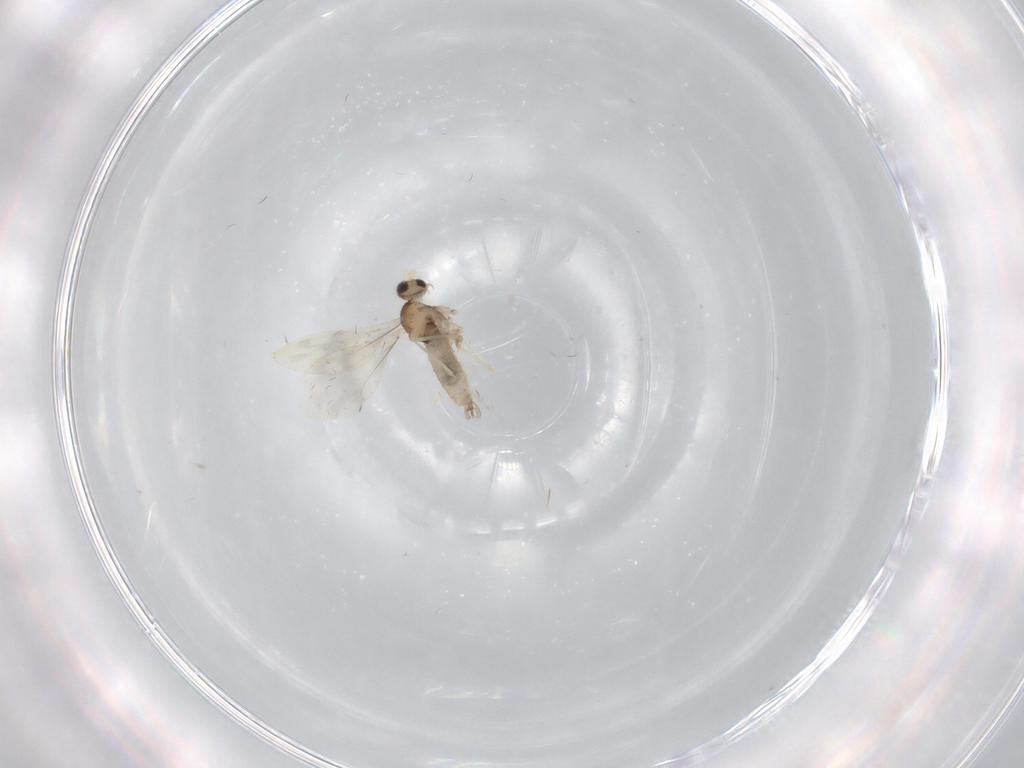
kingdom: Animalia
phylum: Arthropoda
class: Insecta
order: Diptera
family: Cecidomyiidae
